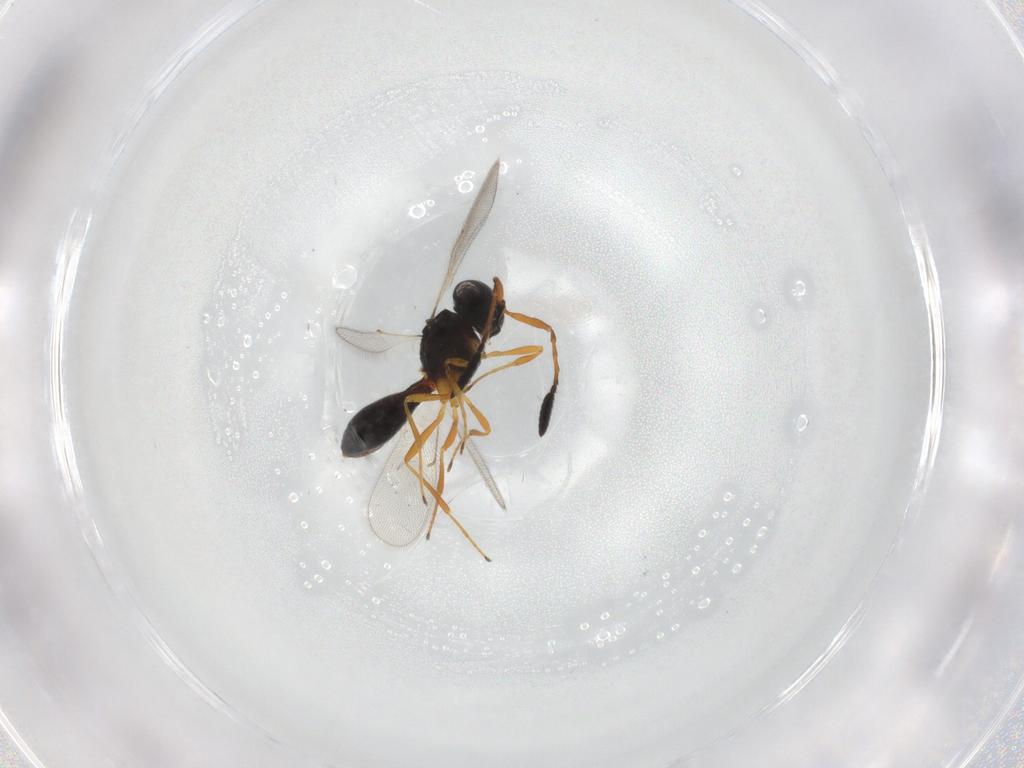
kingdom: Animalia
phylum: Arthropoda
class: Insecta
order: Hymenoptera
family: Scelionidae
